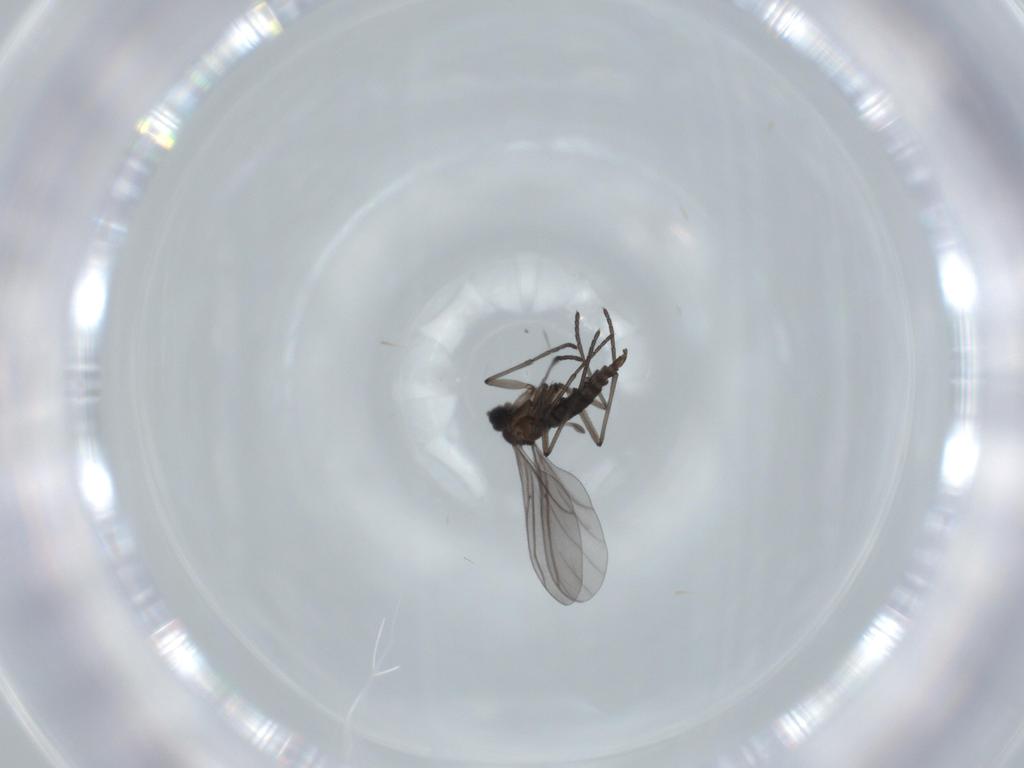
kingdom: Animalia
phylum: Arthropoda
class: Insecta
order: Diptera
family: Sciaridae
